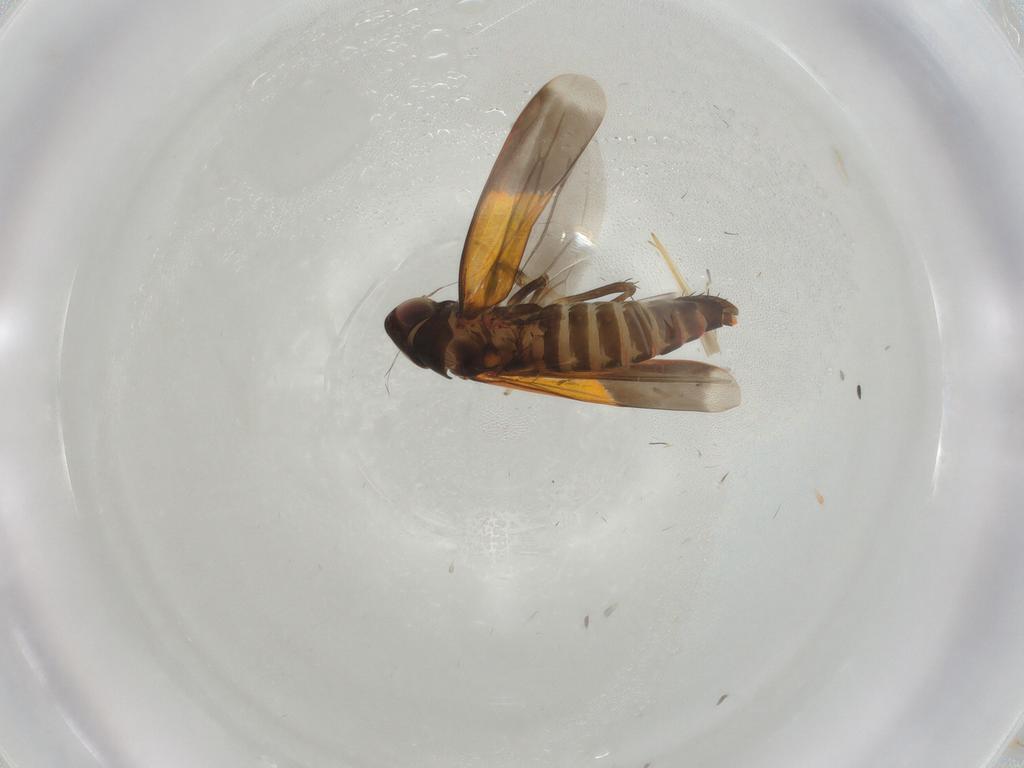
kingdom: Animalia
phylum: Arthropoda
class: Insecta
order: Hemiptera
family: Cicadellidae
